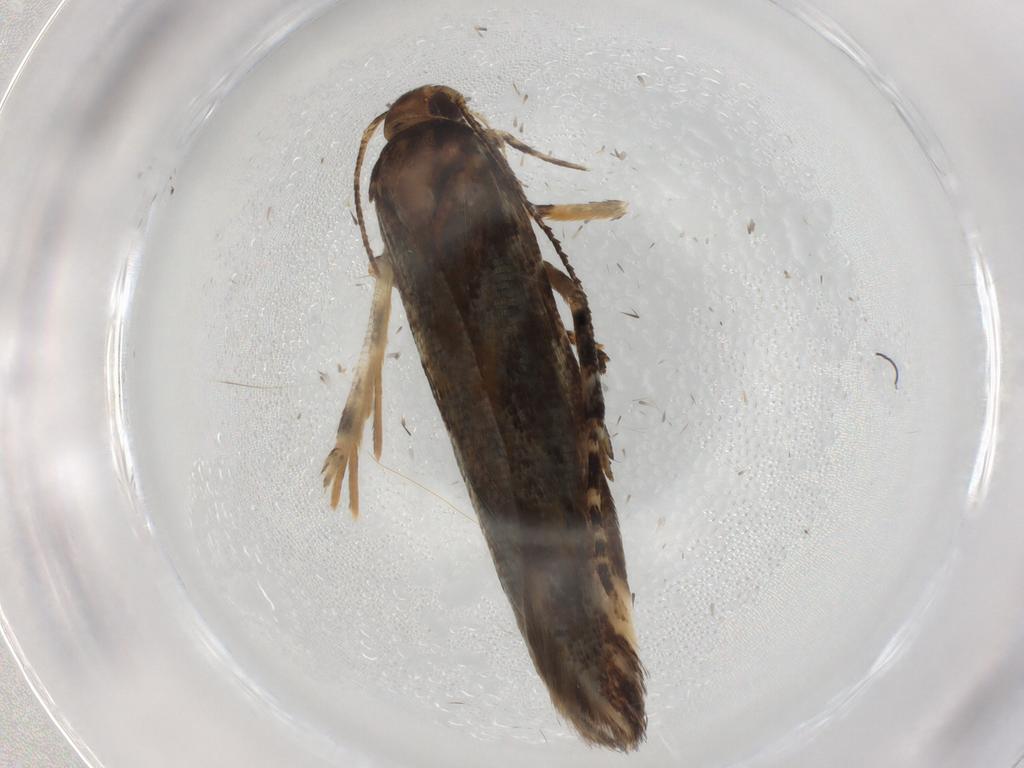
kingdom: Animalia
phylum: Arthropoda
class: Insecta
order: Lepidoptera
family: Gelechiidae
